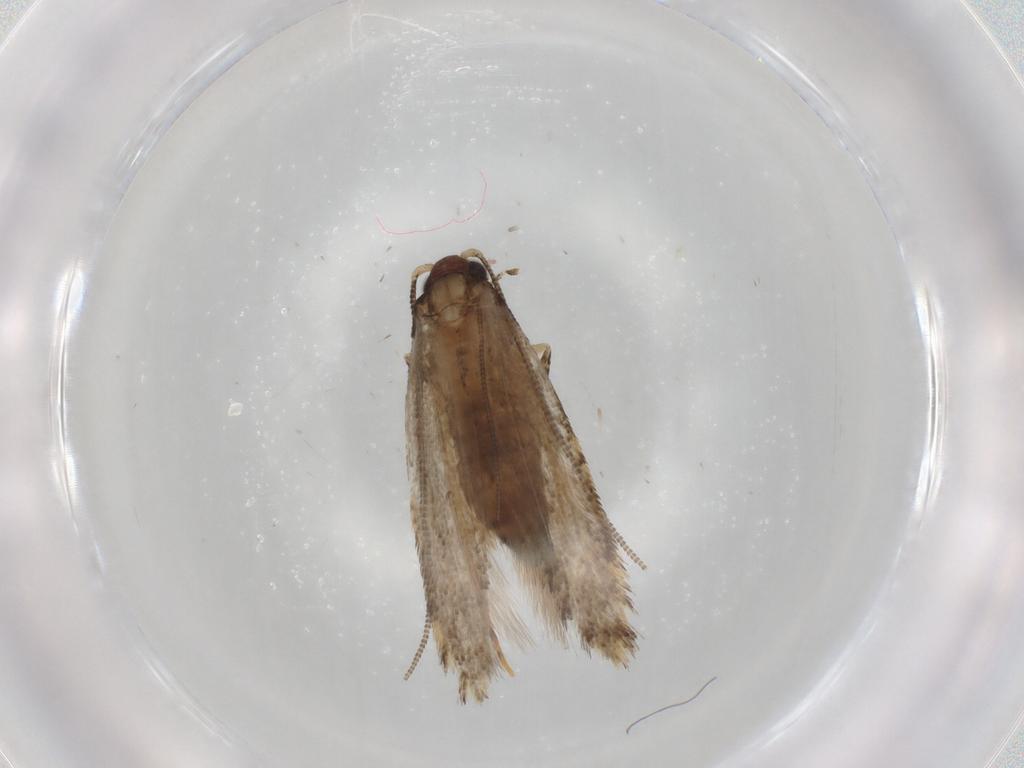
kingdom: Animalia
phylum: Arthropoda
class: Insecta
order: Lepidoptera
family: Tineidae
